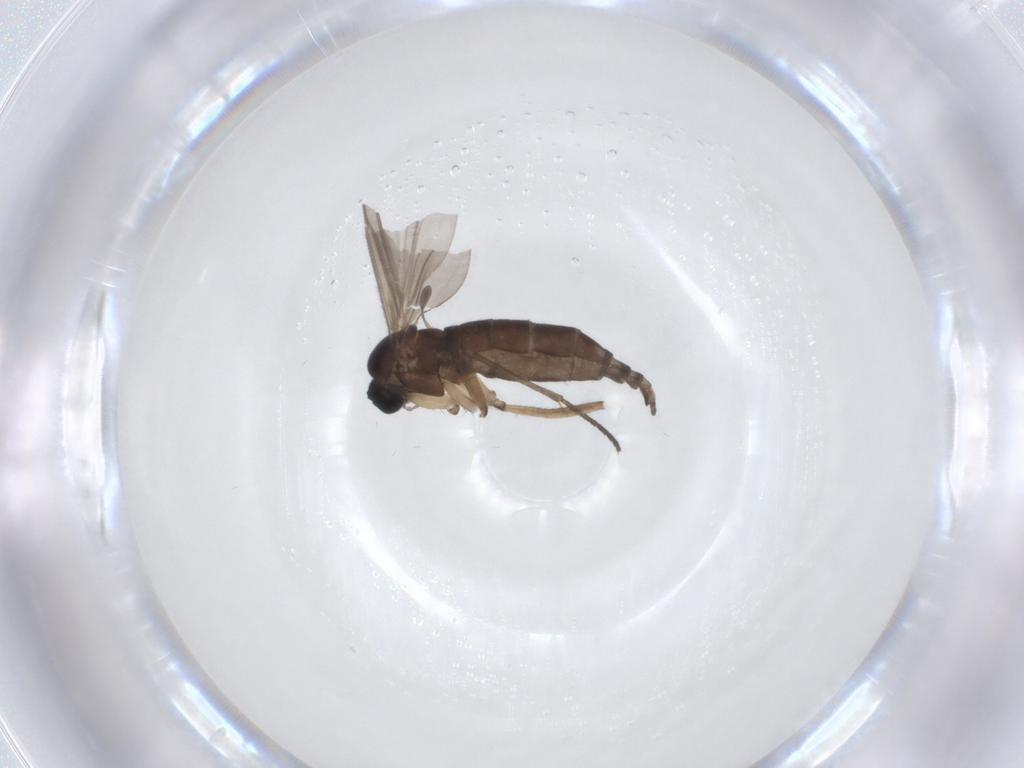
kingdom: Animalia
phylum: Arthropoda
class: Insecta
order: Diptera
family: Sciaridae
